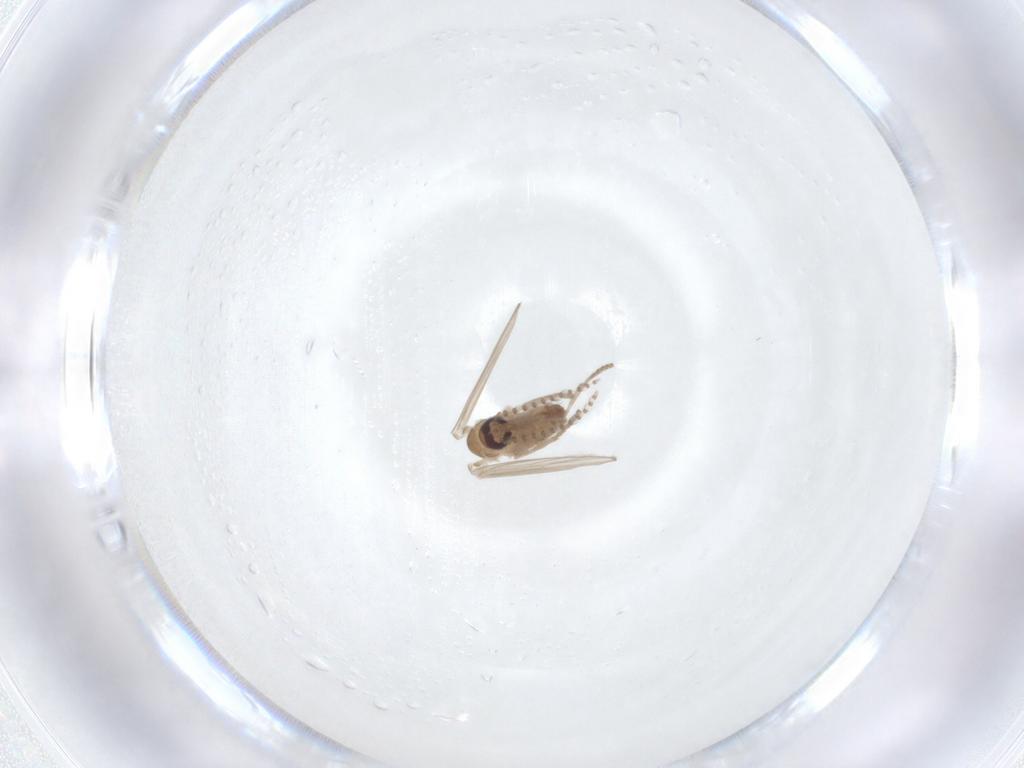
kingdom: Animalia
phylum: Arthropoda
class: Insecta
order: Diptera
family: Psychodidae
